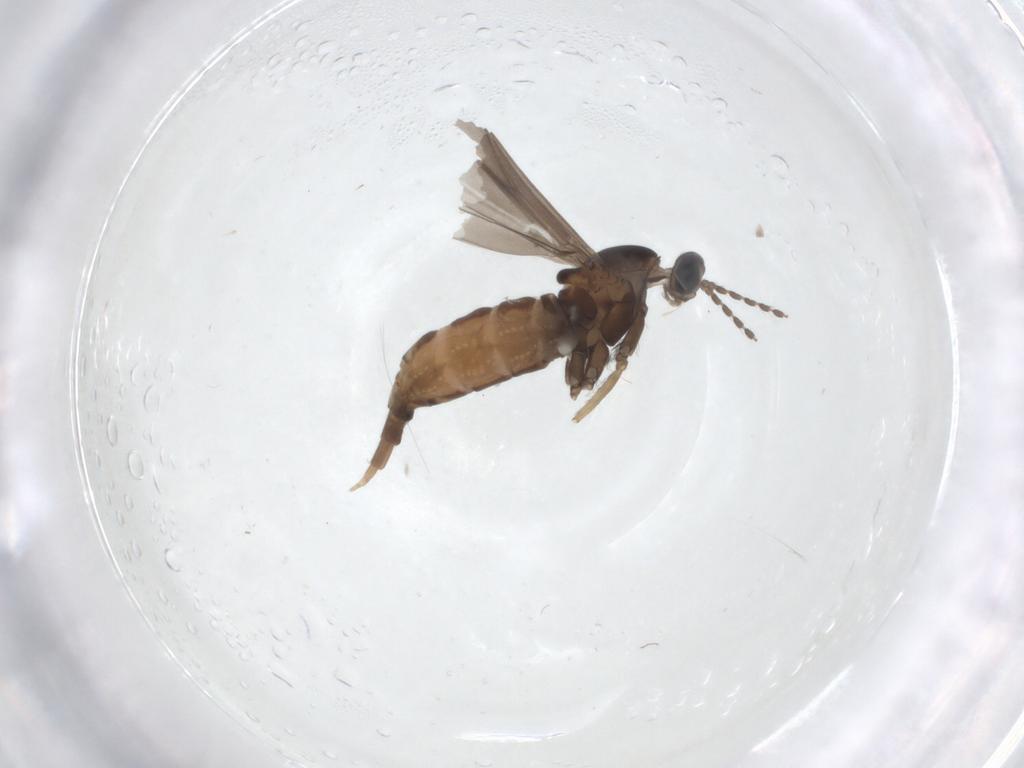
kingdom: Animalia
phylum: Arthropoda
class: Insecta
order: Diptera
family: Cecidomyiidae
